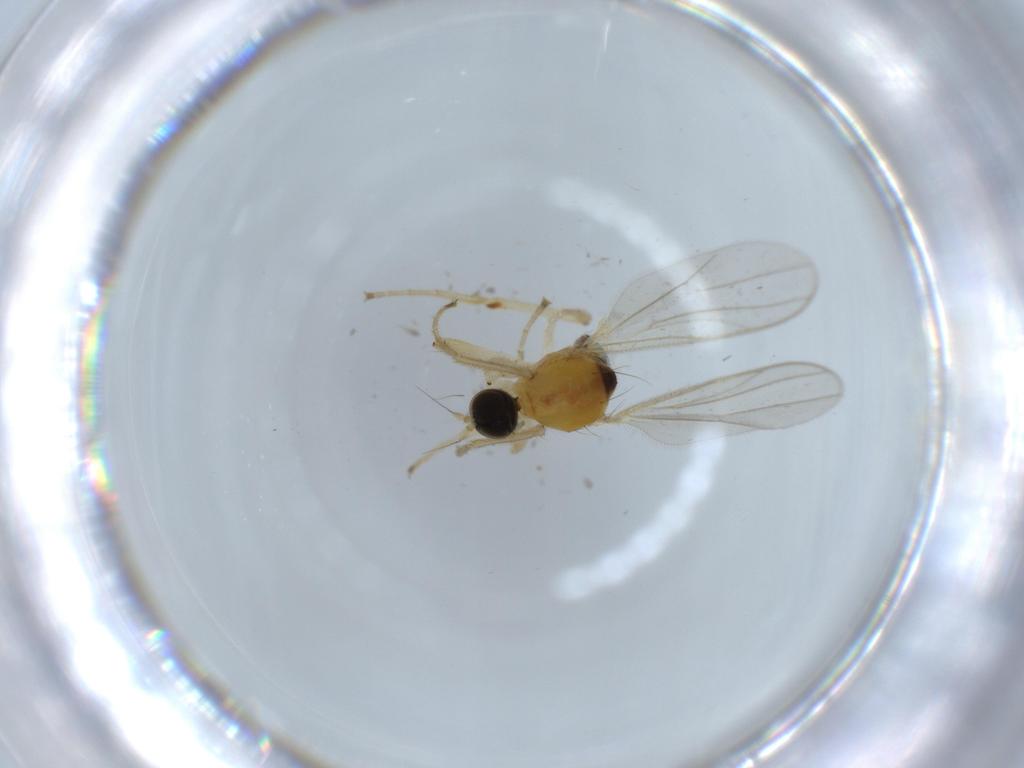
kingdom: Animalia
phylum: Arthropoda
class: Insecta
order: Diptera
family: Hybotidae
